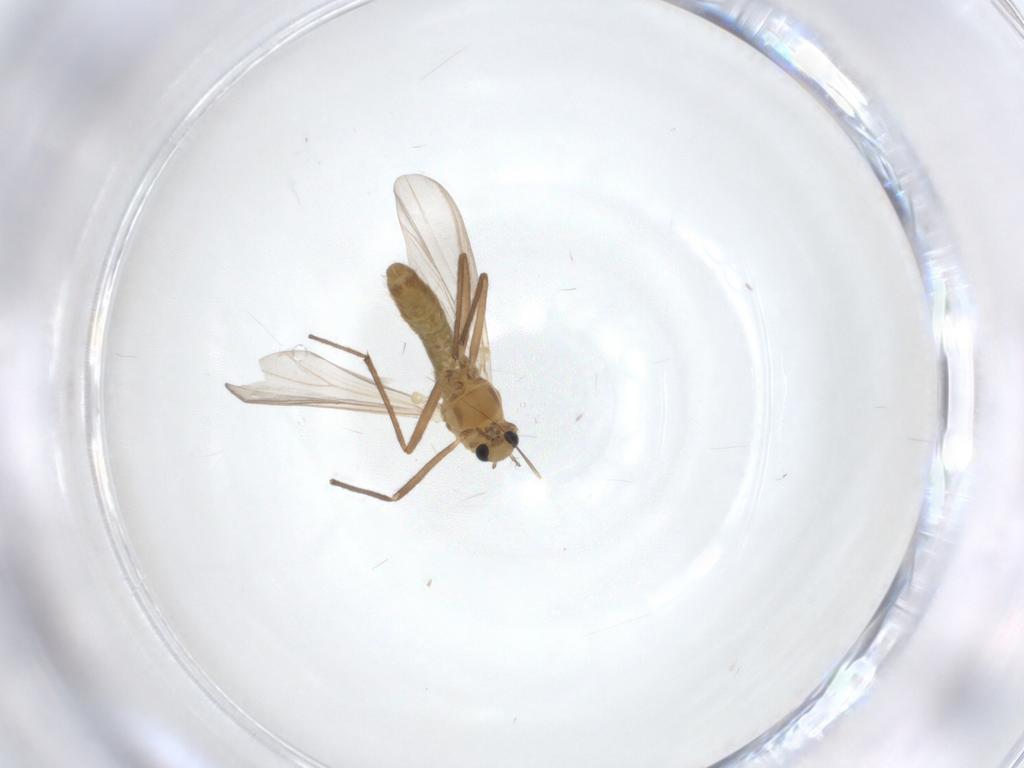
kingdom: Animalia
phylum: Arthropoda
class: Insecta
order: Diptera
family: Chironomidae
